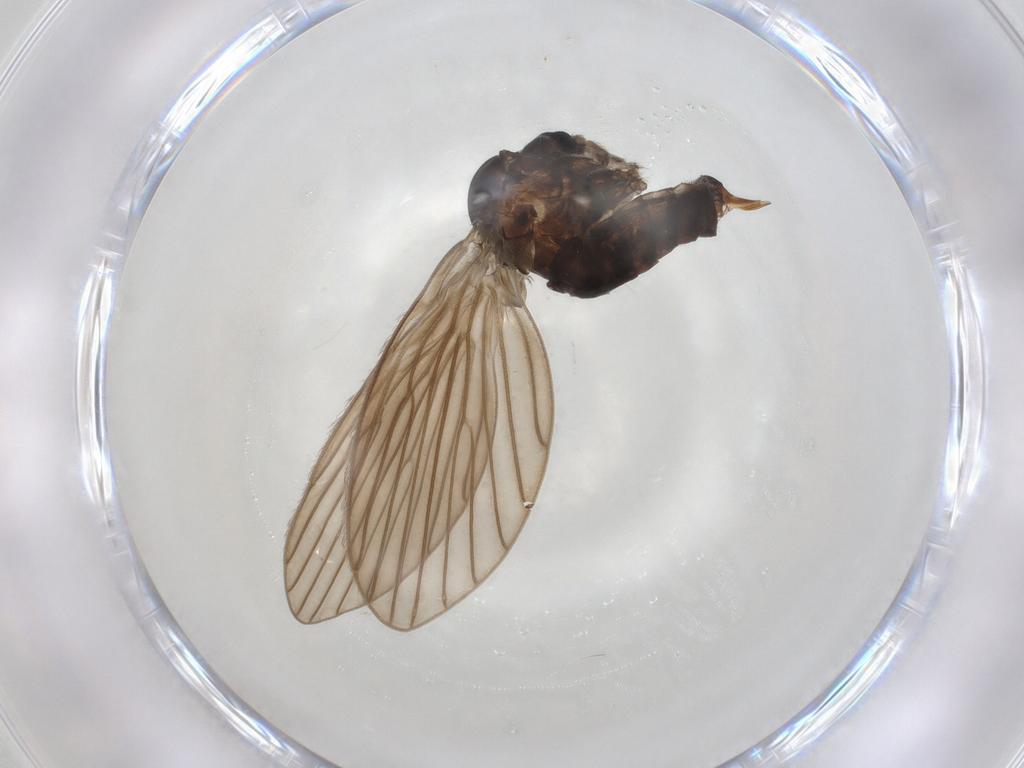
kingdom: Animalia
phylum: Arthropoda
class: Insecta
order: Diptera
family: Psychodidae
